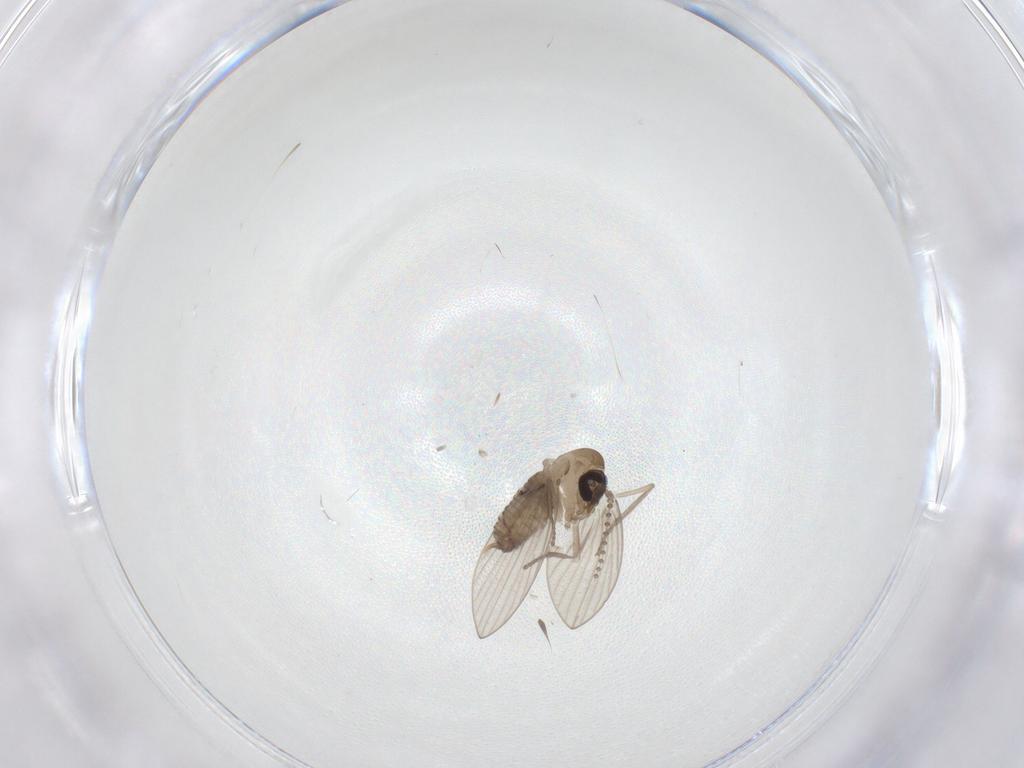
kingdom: Animalia
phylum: Arthropoda
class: Insecta
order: Diptera
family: Psychodidae
